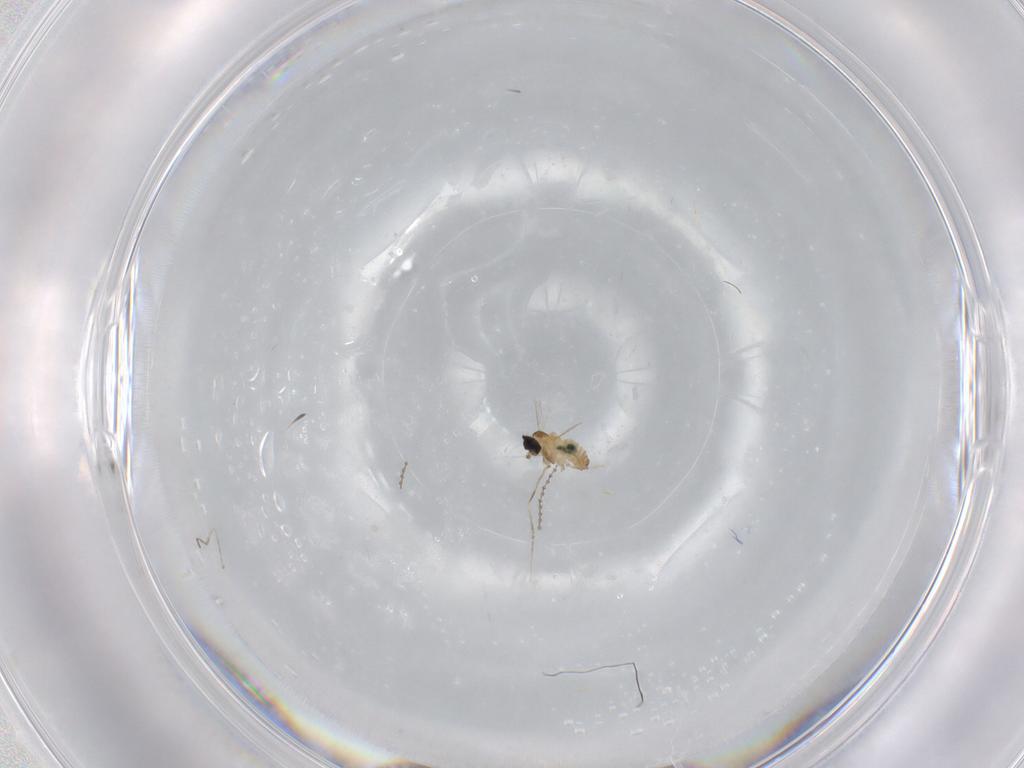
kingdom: Animalia
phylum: Arthropoda
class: Insecta
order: Diptera
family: Cecidomyiidae
